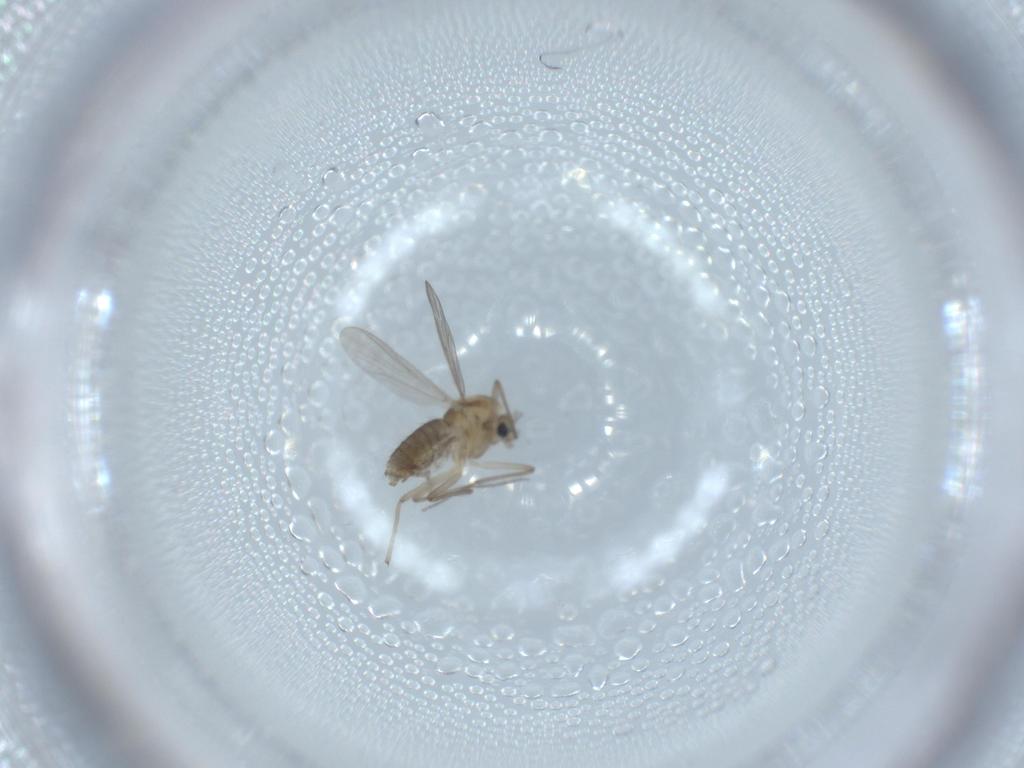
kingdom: Animalia
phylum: Arthropoda
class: Insecta
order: Diptera
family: Chironomidae
